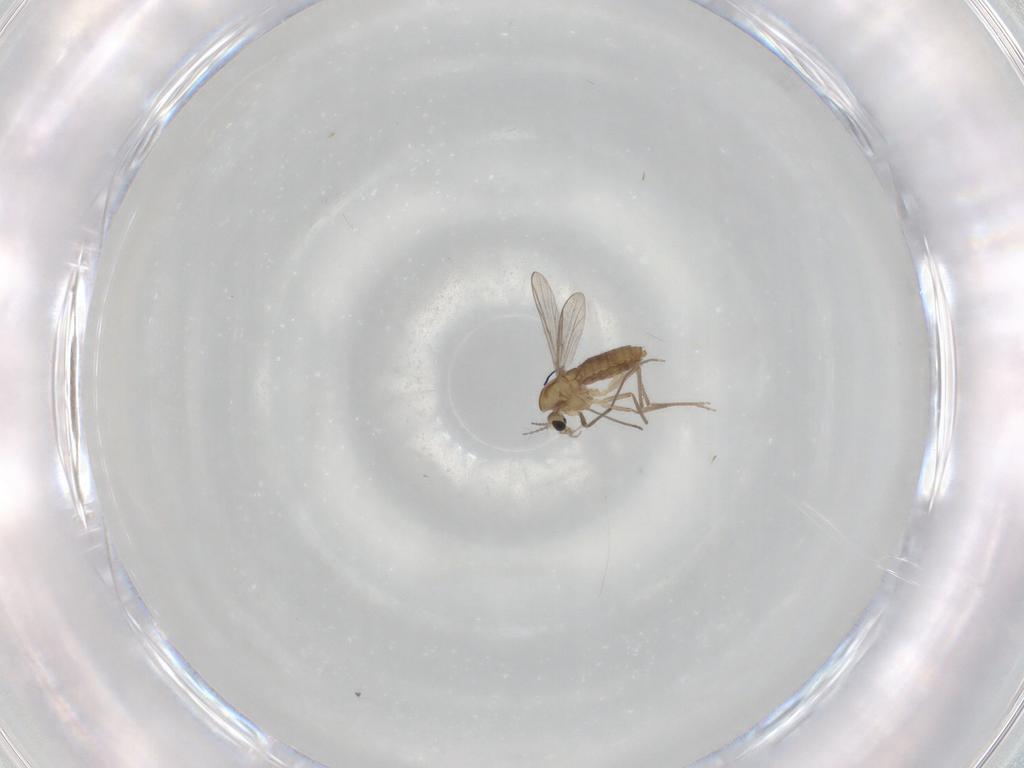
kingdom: Animalia
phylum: Arthropoda
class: Insecta
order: Diptera
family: Chironomidae
